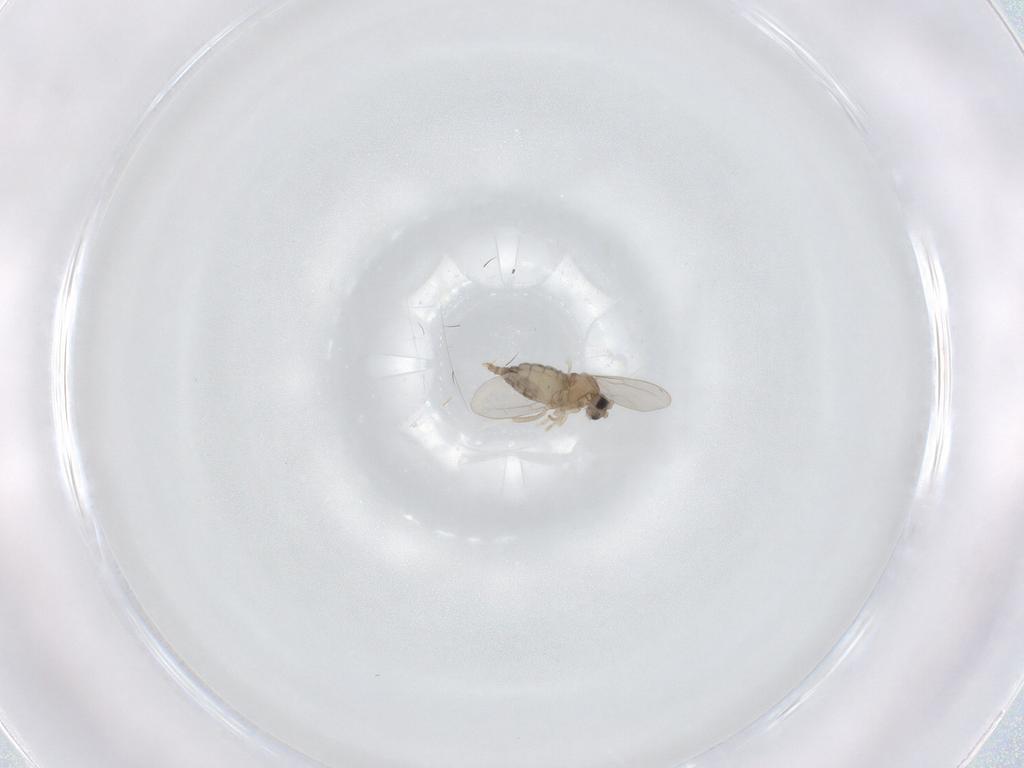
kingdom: Animalia
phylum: Arthropoda
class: Insecta
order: Diptera
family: Cecidomyiidae
